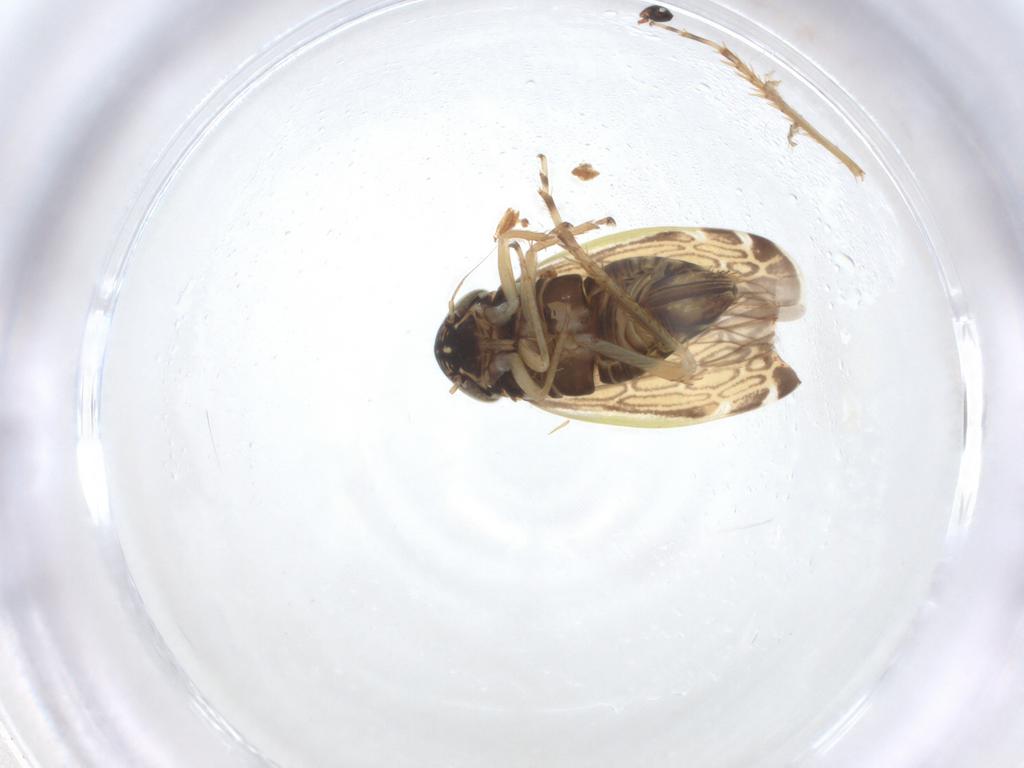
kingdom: Animalia
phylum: Arthropoda
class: Insecta
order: Hemiptera
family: Cicadellidae
